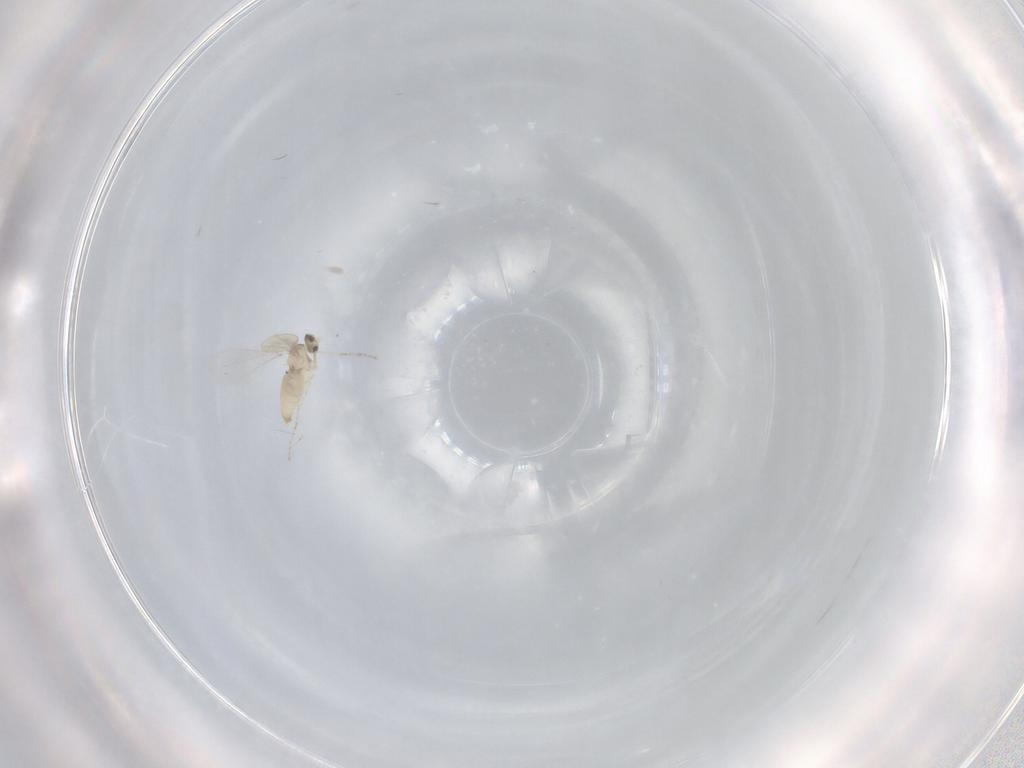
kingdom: Animalia
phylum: Arthropoda
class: Insecta
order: Diptera
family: Cecidomyiidae
